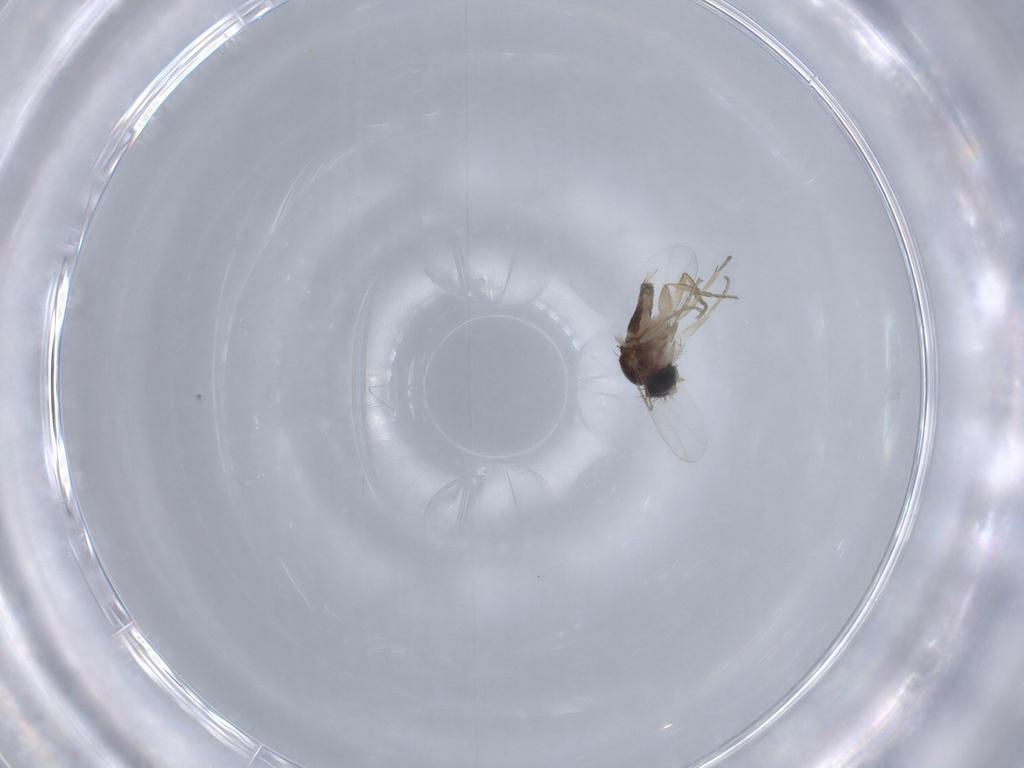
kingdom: Animalia
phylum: Arthropoda
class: Insecta
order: Diptera
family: Phoridae
